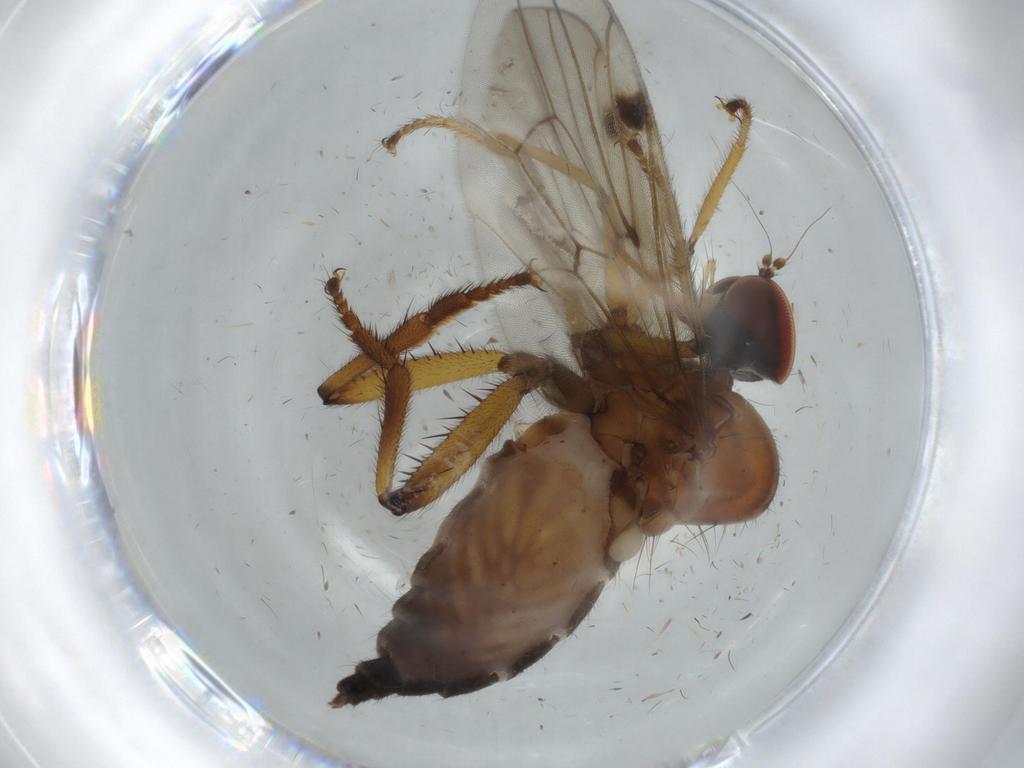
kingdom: Animalia
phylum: Arthropoda
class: Insecta
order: Diptera
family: Hybotidae
